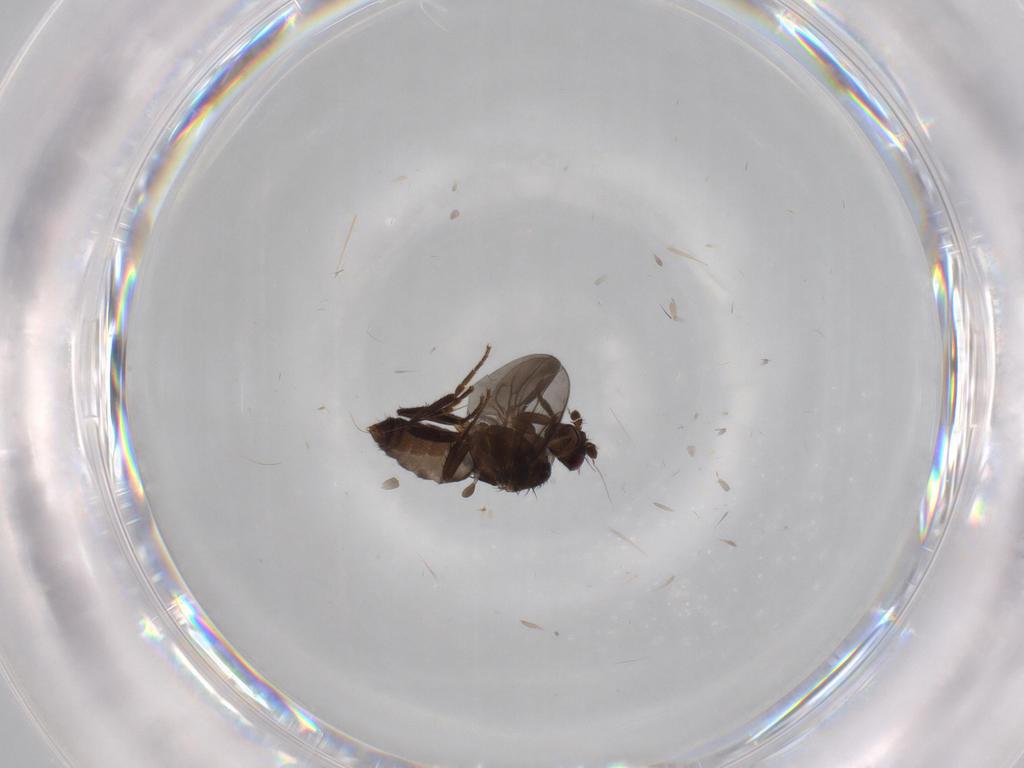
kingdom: Animalia
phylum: Arthropoda
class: Insecta
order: Diptera
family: Sphaeroceridae
